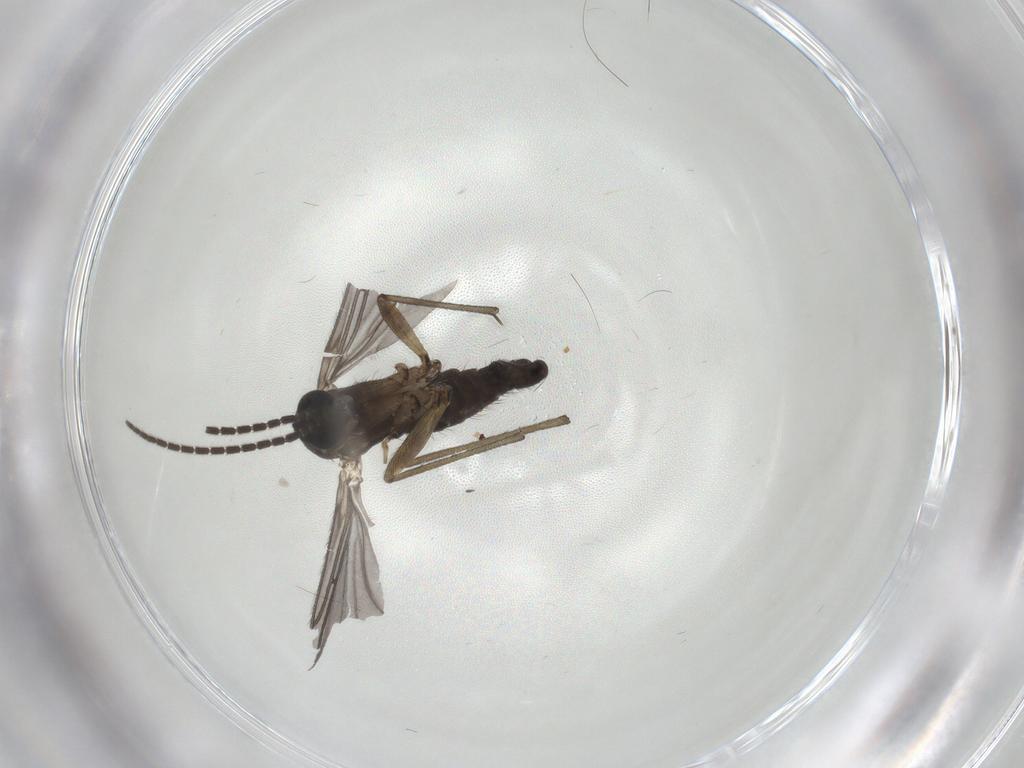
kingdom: Animalia
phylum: Arthropoda
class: Insecta
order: Diptera
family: Sciaridae
